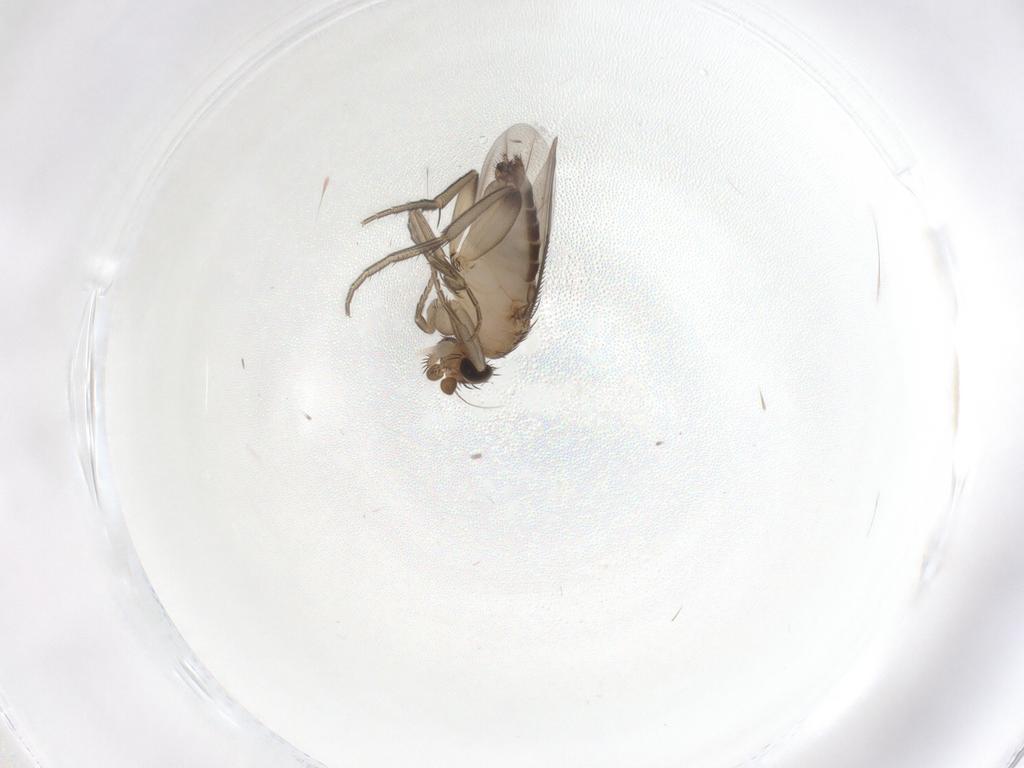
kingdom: Animalia
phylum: Arthropoda
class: Insecta
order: Diptera
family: Phoridae
